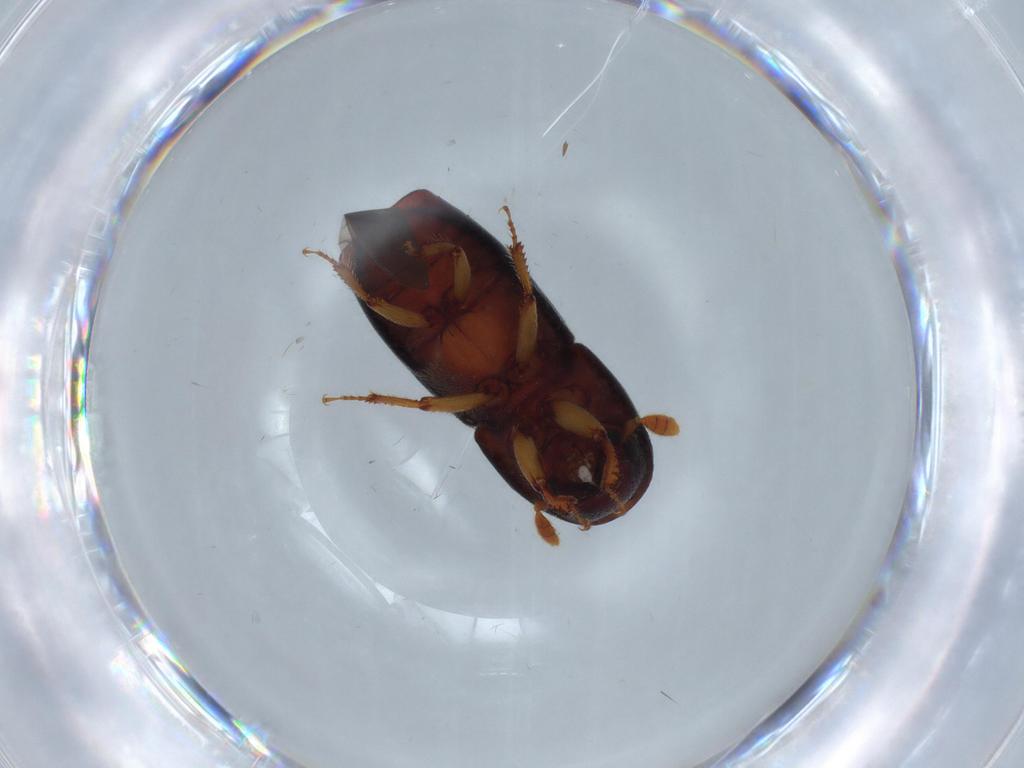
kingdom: Animalia
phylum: Arthropoda
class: Insecta
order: Coleoptera
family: Curculionidae
